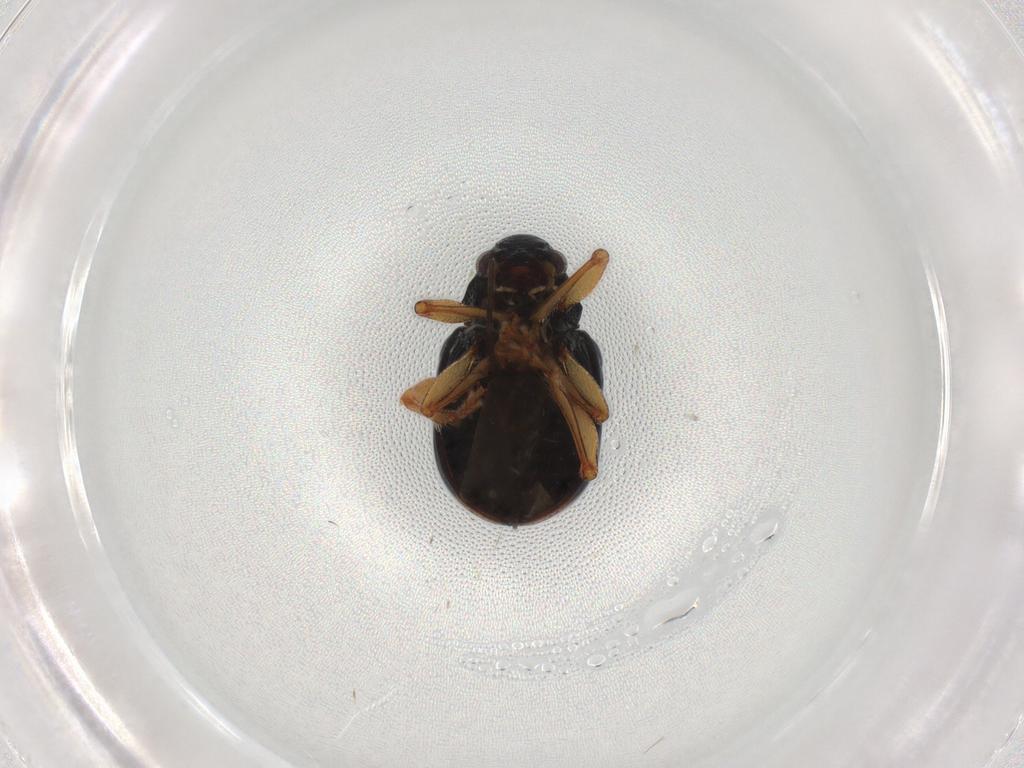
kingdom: Animalia
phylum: Arthropoda
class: Insecta
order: Coleoptera
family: Chrysomelidae
